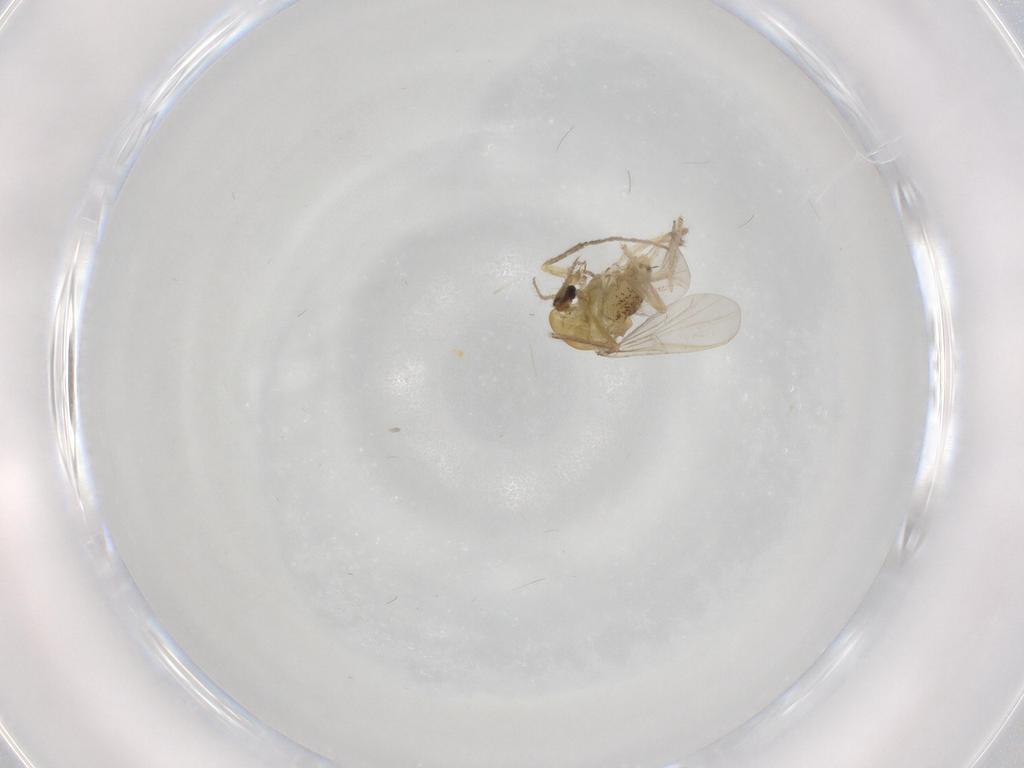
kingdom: Animalia
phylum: Arthropoda
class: Insecta
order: Diptera
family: Chironomidae
